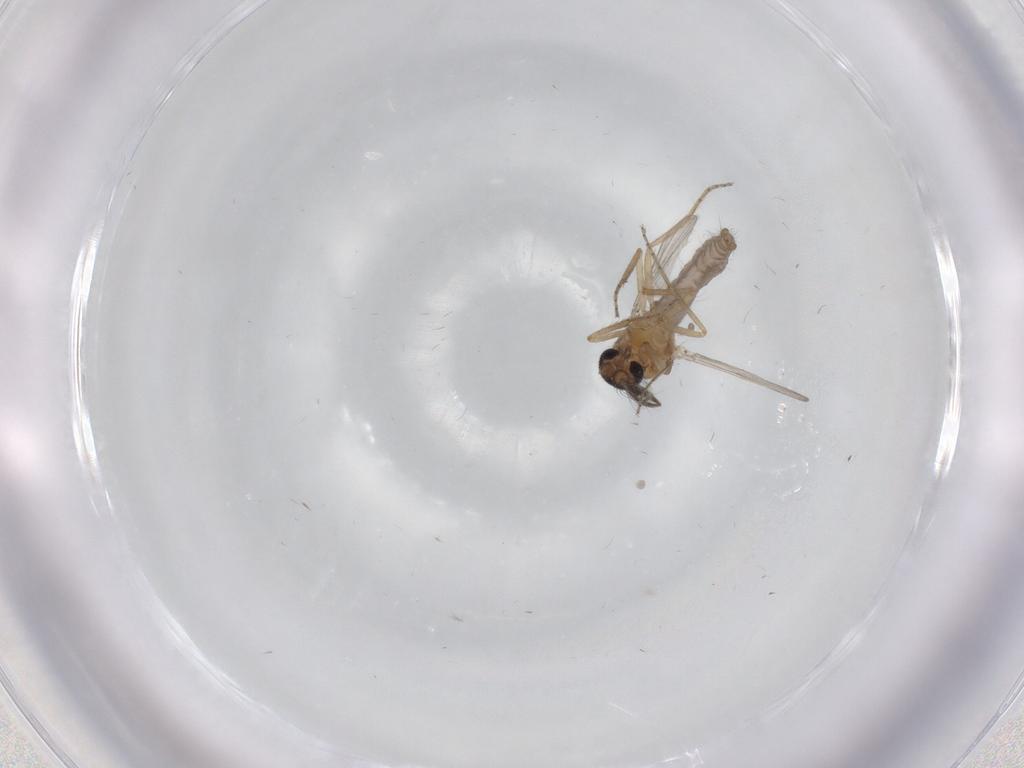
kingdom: Animalia
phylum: Arthropoda
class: Insecta
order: Diptera
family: Cecidomyiidae
